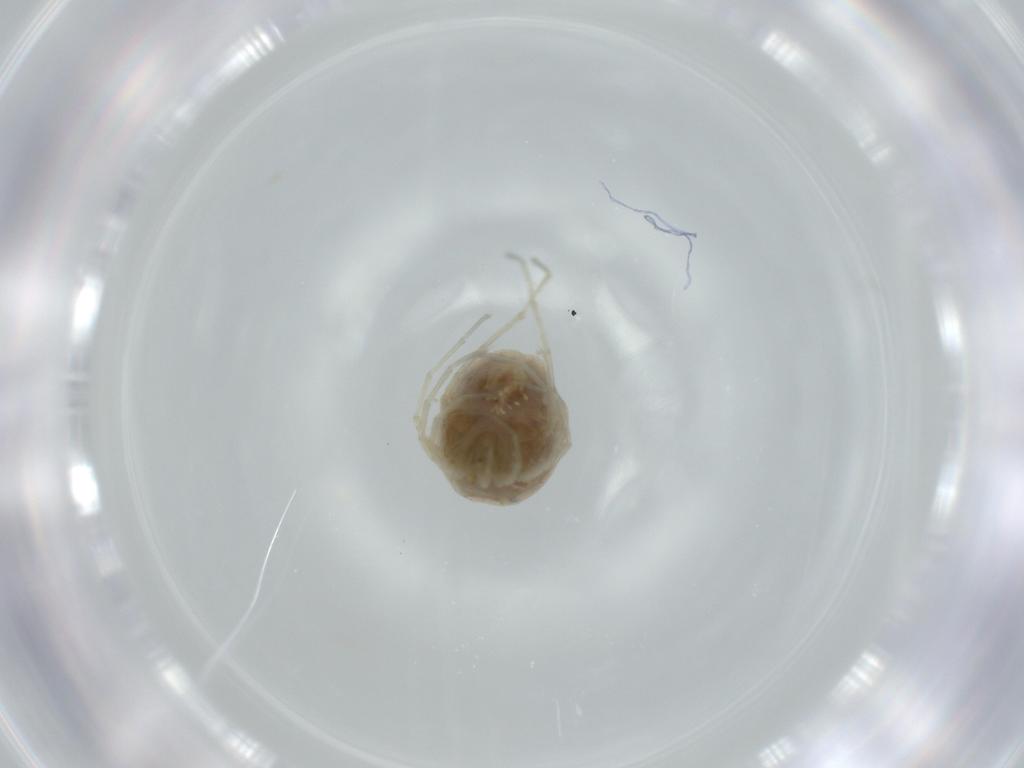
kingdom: Animalia
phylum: Arthropoda
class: Arachnida
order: Trombidiformes
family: Hygrobatidae
